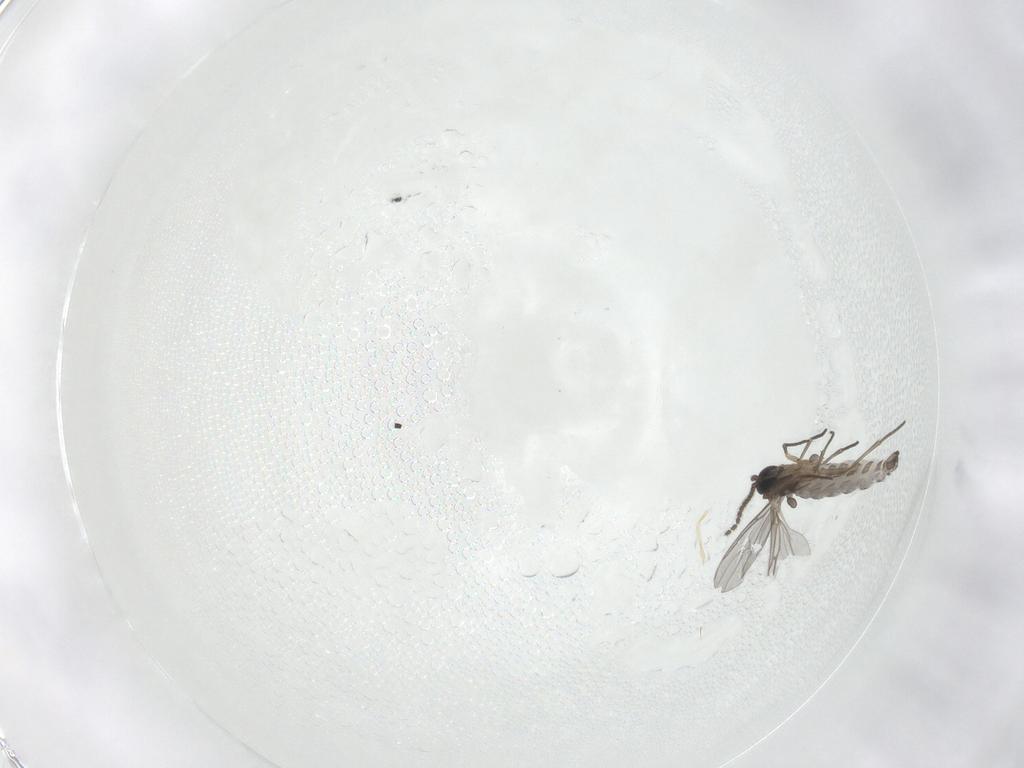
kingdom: Animalia
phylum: Arthropoda
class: Insecta
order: Diptera
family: Sciaridae
